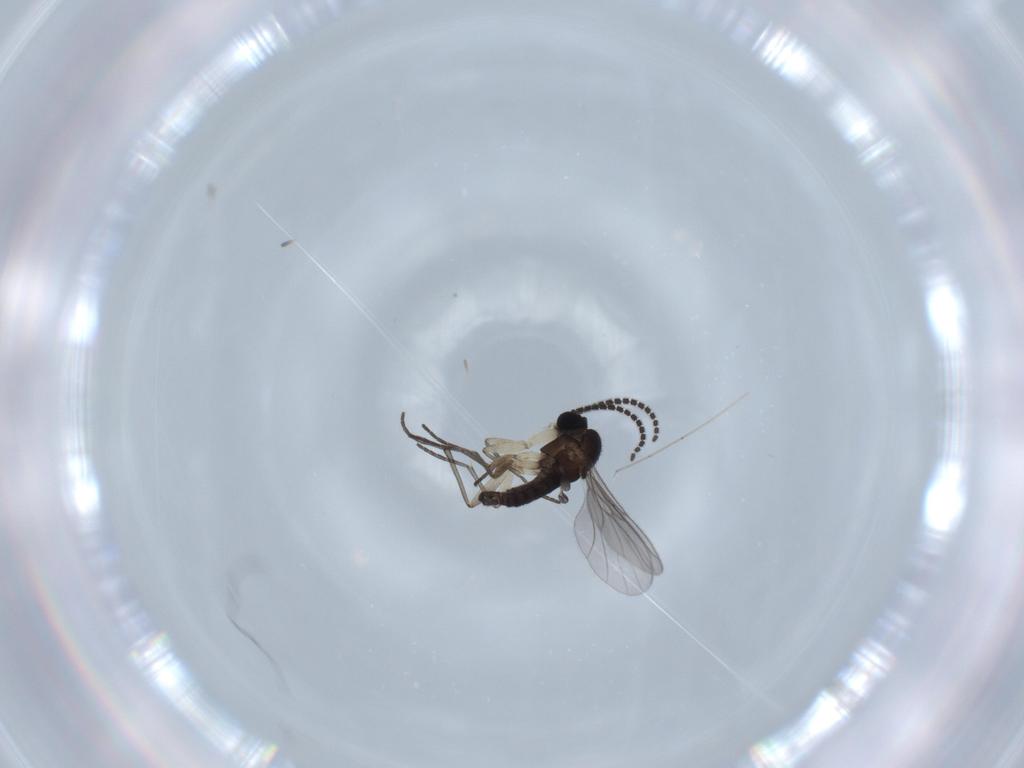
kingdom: Animalia
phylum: Arthropoda
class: Insecta
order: Diptera
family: Sciaridae
